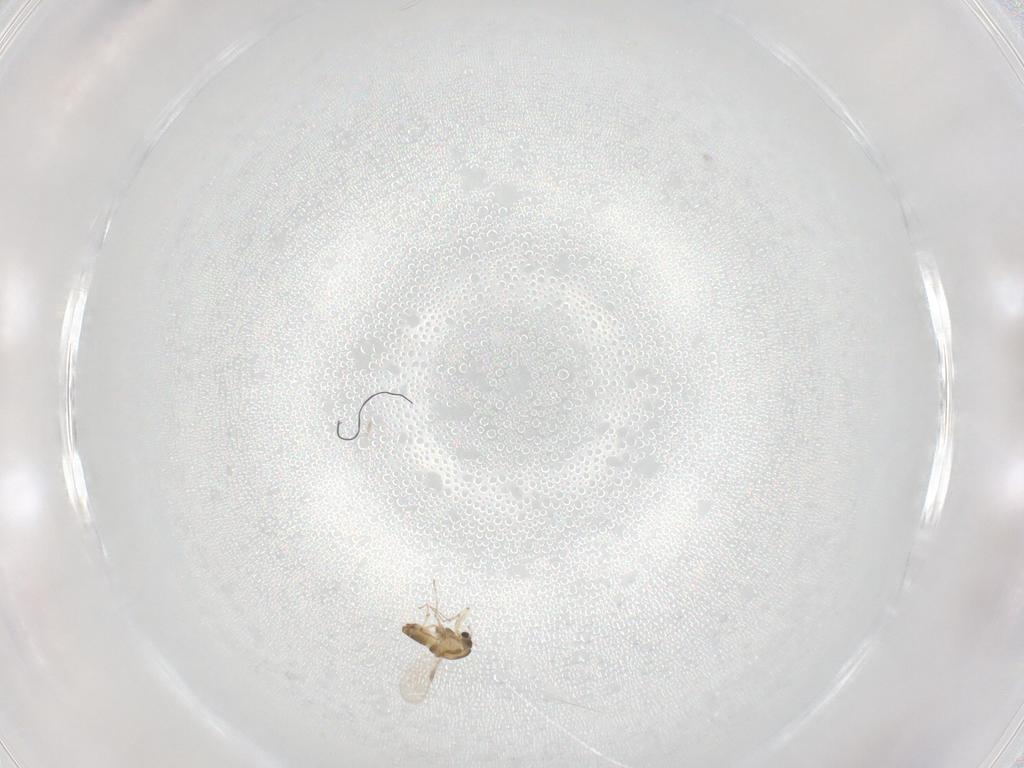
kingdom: Animalia
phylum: Arthropoda
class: Insecta
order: Diptera
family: Chironomidae
